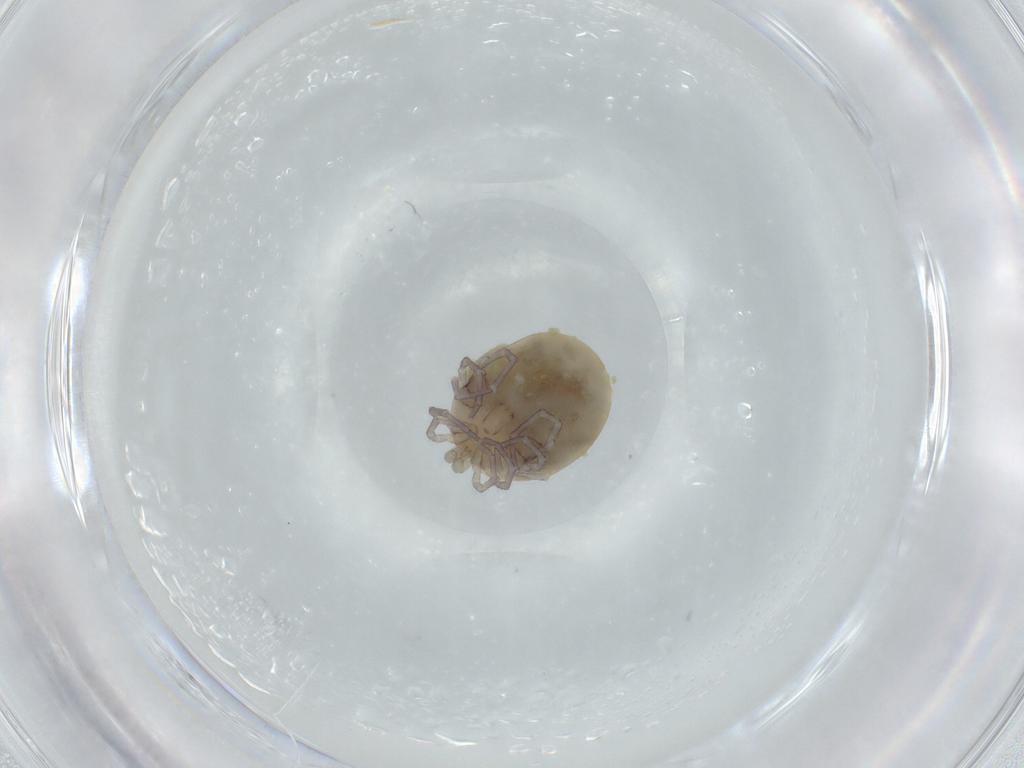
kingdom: Animalia
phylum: Arthropoda
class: Arachnida
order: Trombidiformes
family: Lebertiidae
